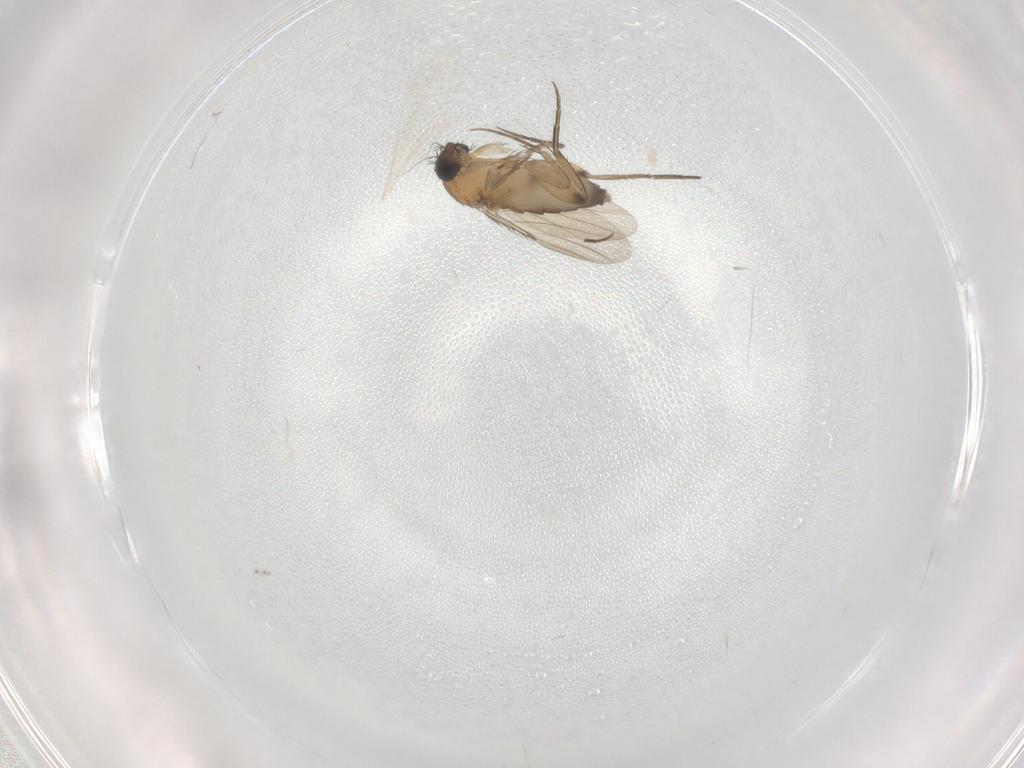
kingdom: Animalia
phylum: Arthropoda
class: Insecta
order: Diptera
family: Cecidomyiidae
